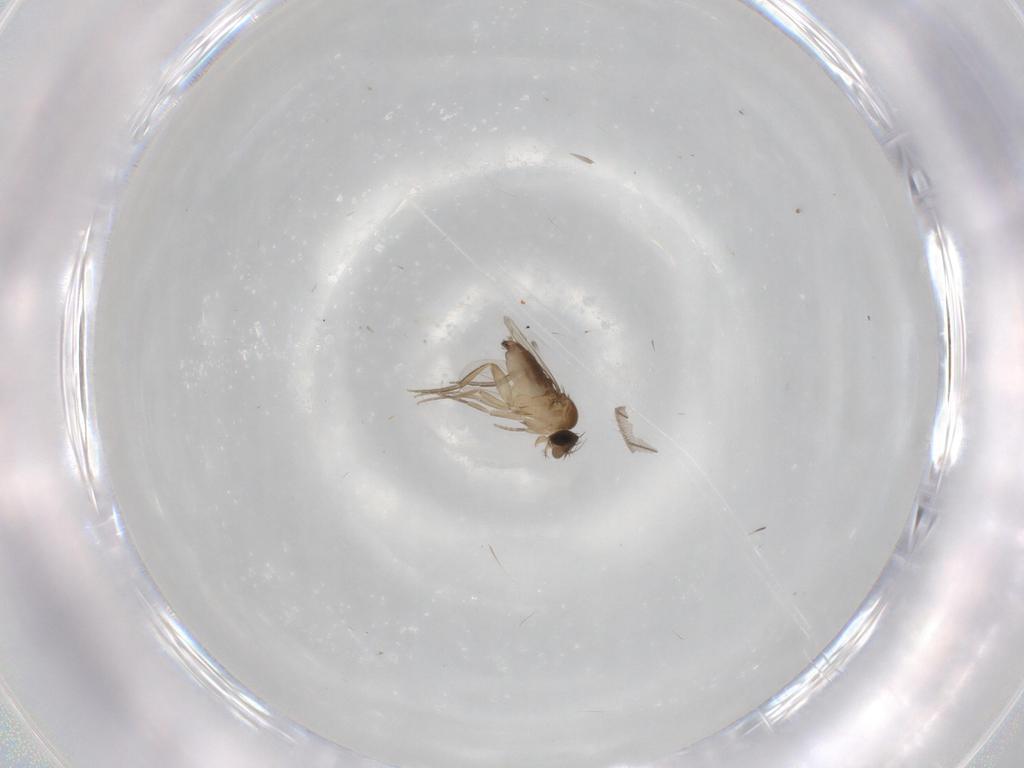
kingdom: Animalia
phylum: Arthropoda
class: Insecta
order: Diptera
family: Phoridae
